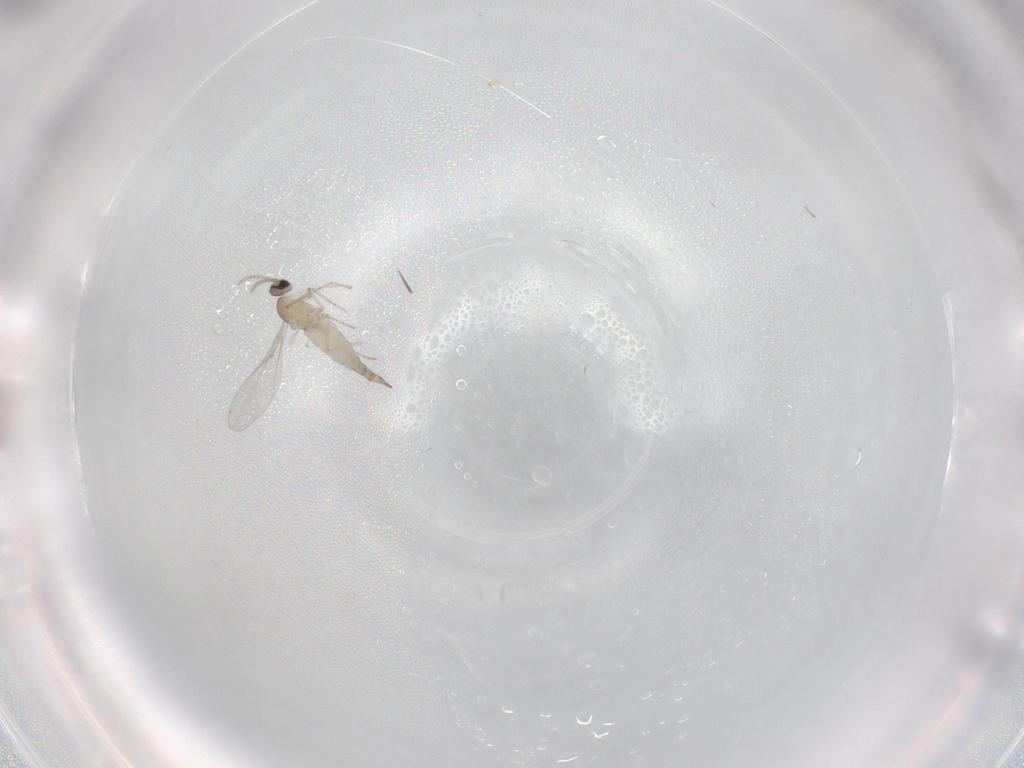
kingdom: Animalia
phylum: Arthropoda
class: Insecta
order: Diptera
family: Cecidomyiidae
